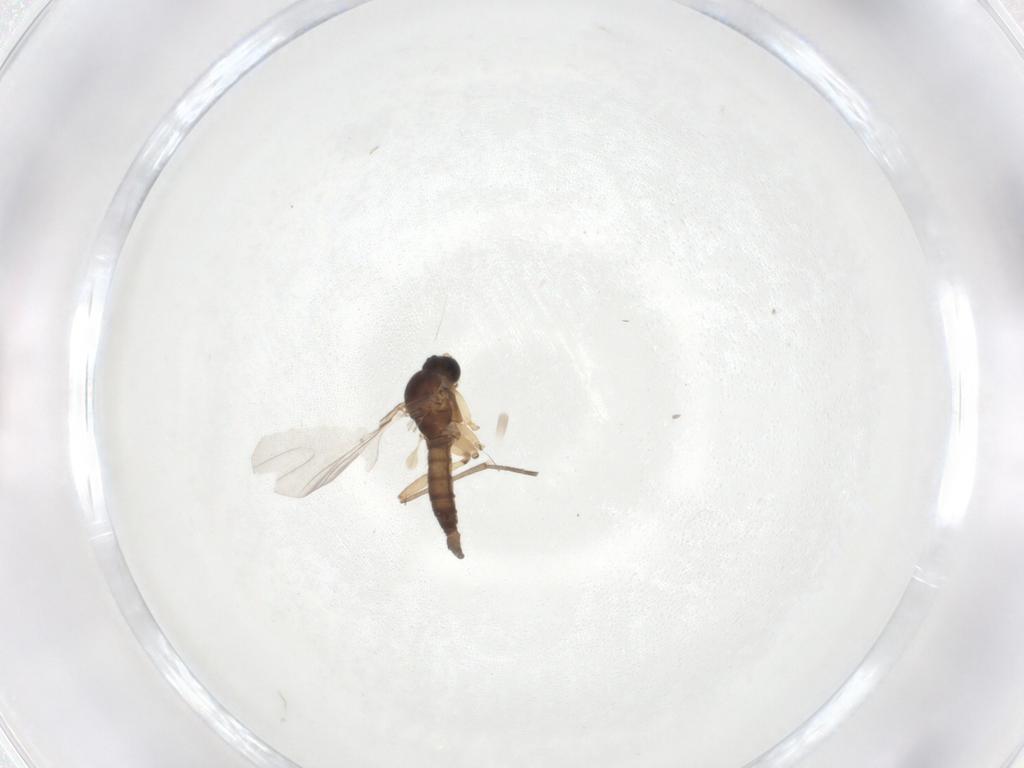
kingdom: Animalia
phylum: Arthropoda
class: Insecta
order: Diptera
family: Sciaridae
